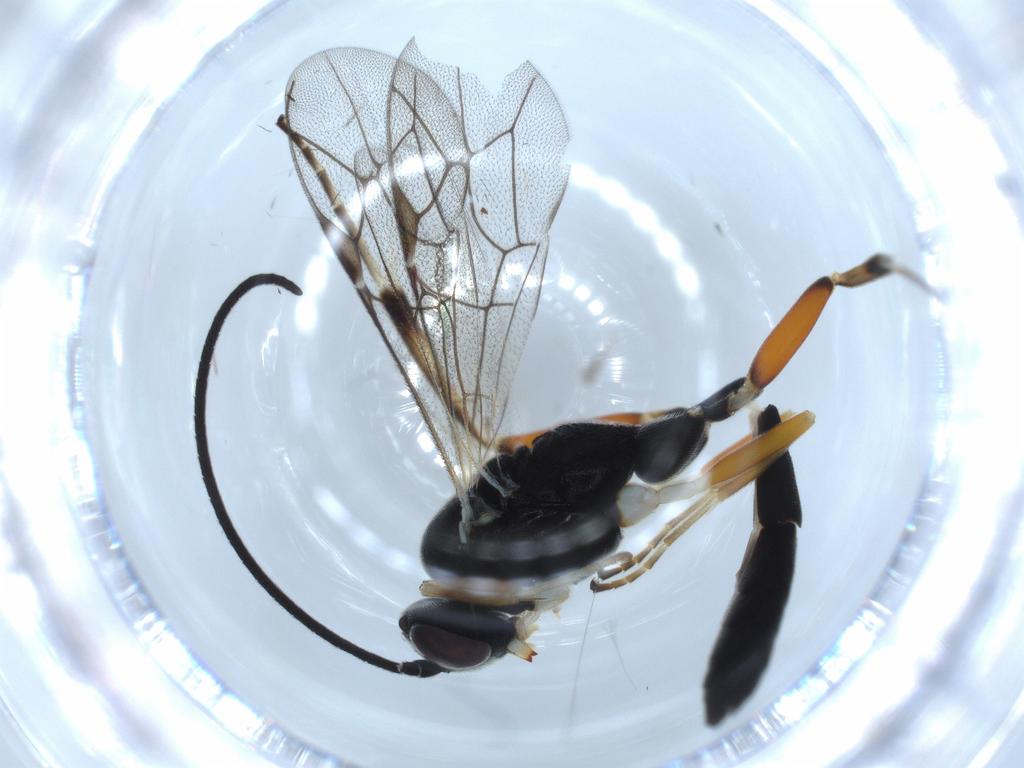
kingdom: Animalia
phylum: Arthropoda
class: Insecta
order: Hymenoptera
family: Ichneumonidae
